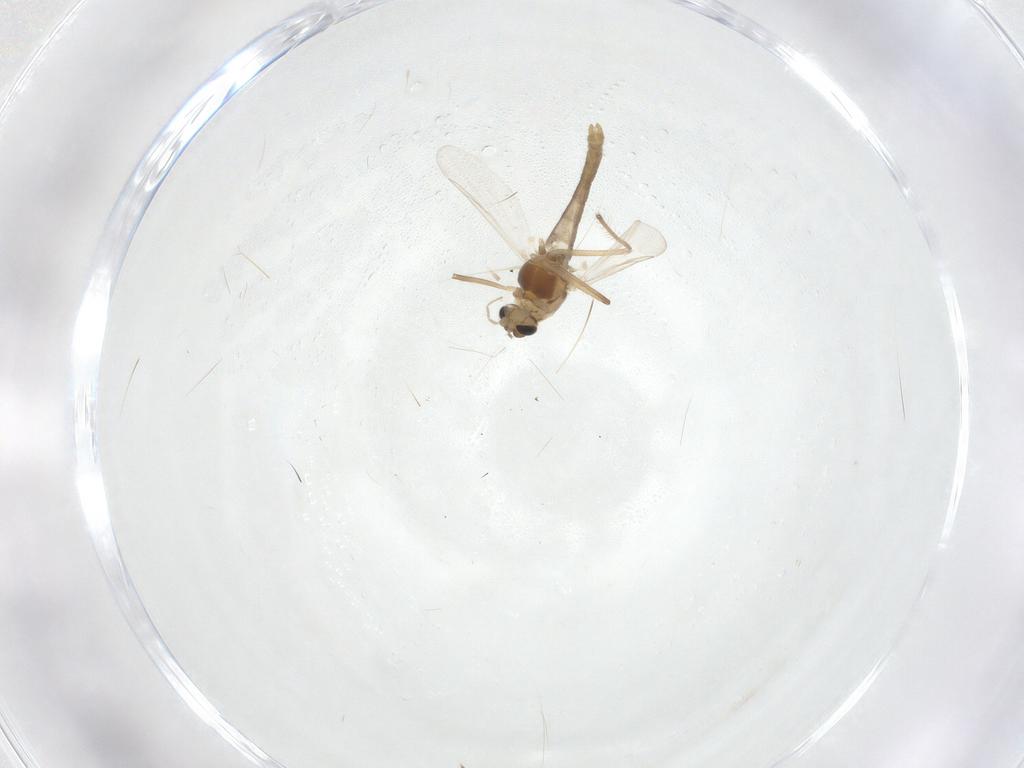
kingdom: Animalia
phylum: Arthropoda
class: Insecta
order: Diptera
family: Chironomidae
